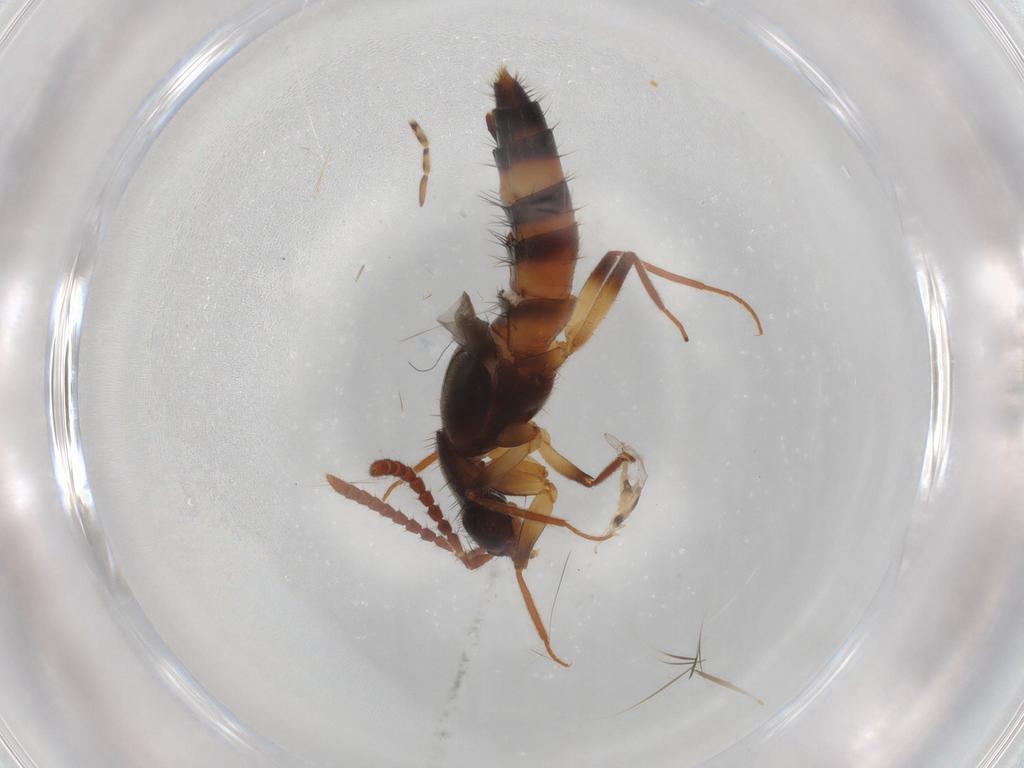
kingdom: Animalia
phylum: Arthropoda
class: Insecta
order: Coleoptera
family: Staphylinidae
